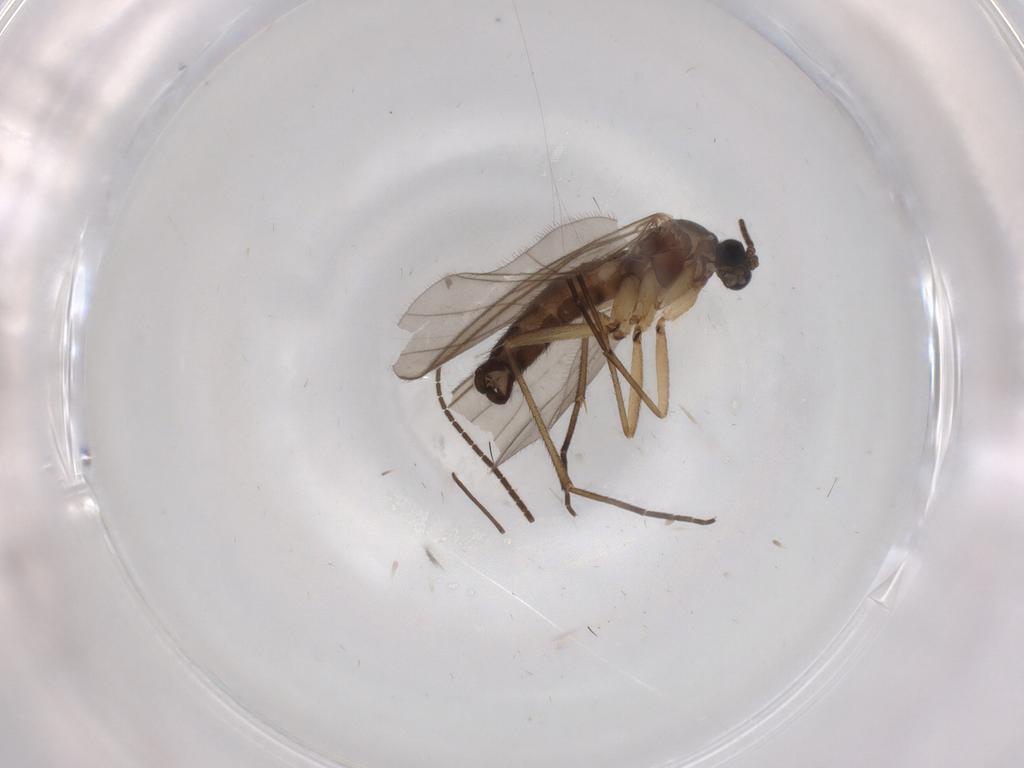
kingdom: Animalia
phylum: Arthropoda
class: Insecta
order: Diptera
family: Sciaridae
